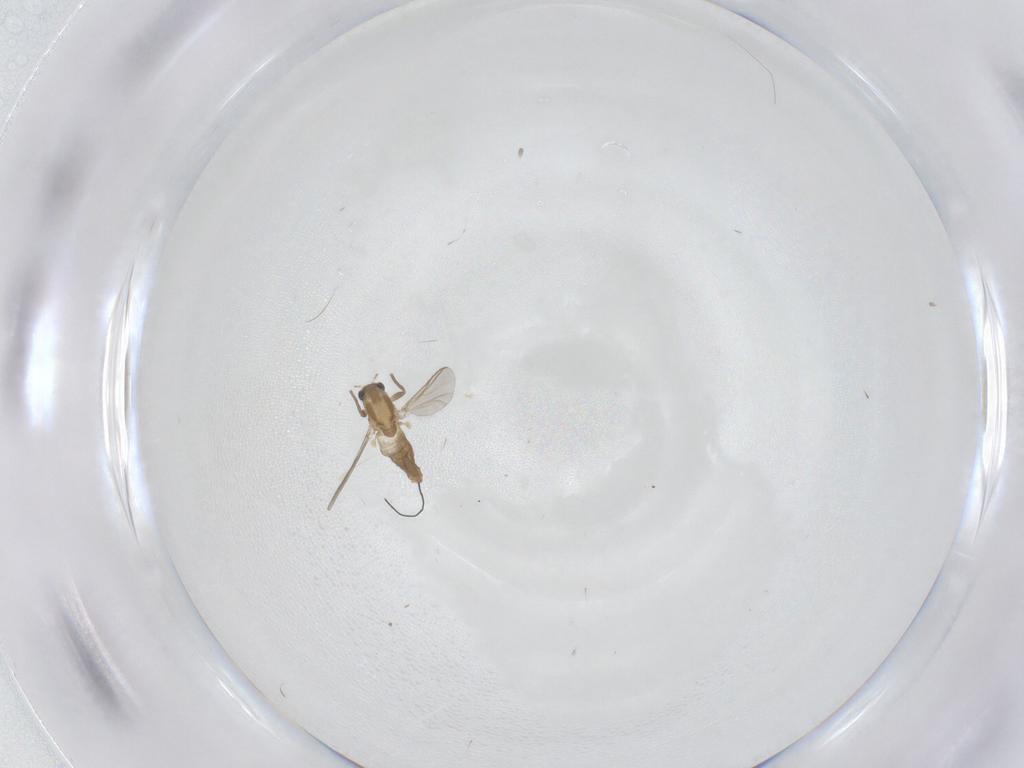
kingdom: Animalia
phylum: Arthropoda
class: Insecta
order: Diptera
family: Chironomidae
